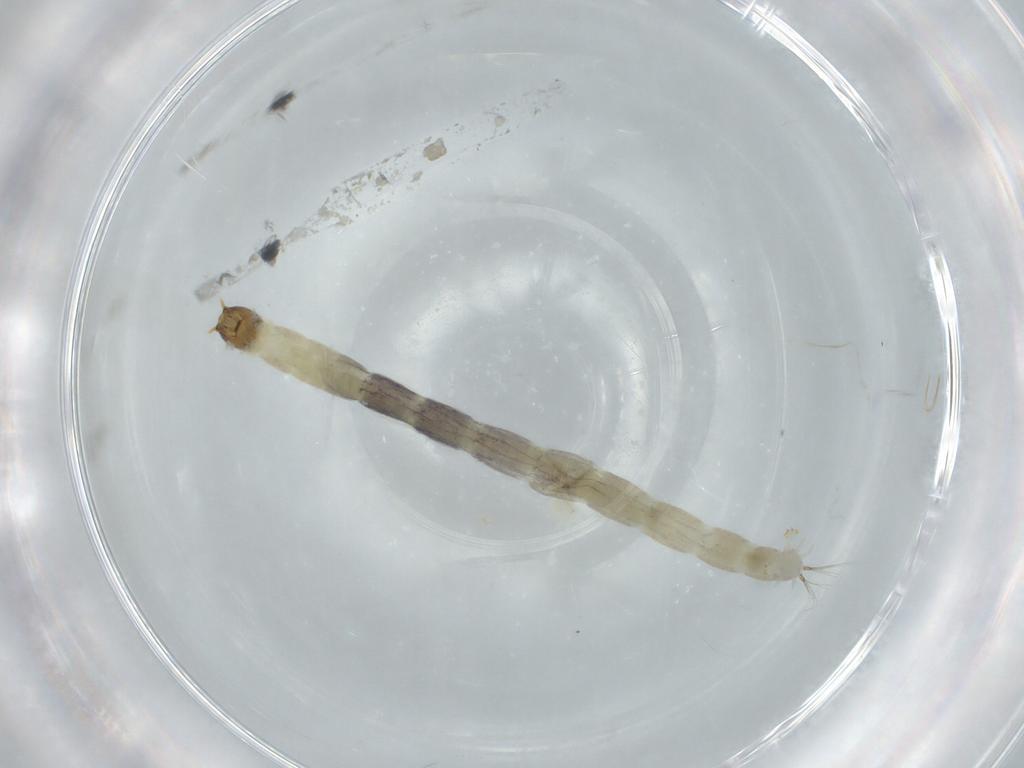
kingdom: Animalia
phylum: Arthropoda
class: Insecta
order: Diptera
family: Chironomidae
